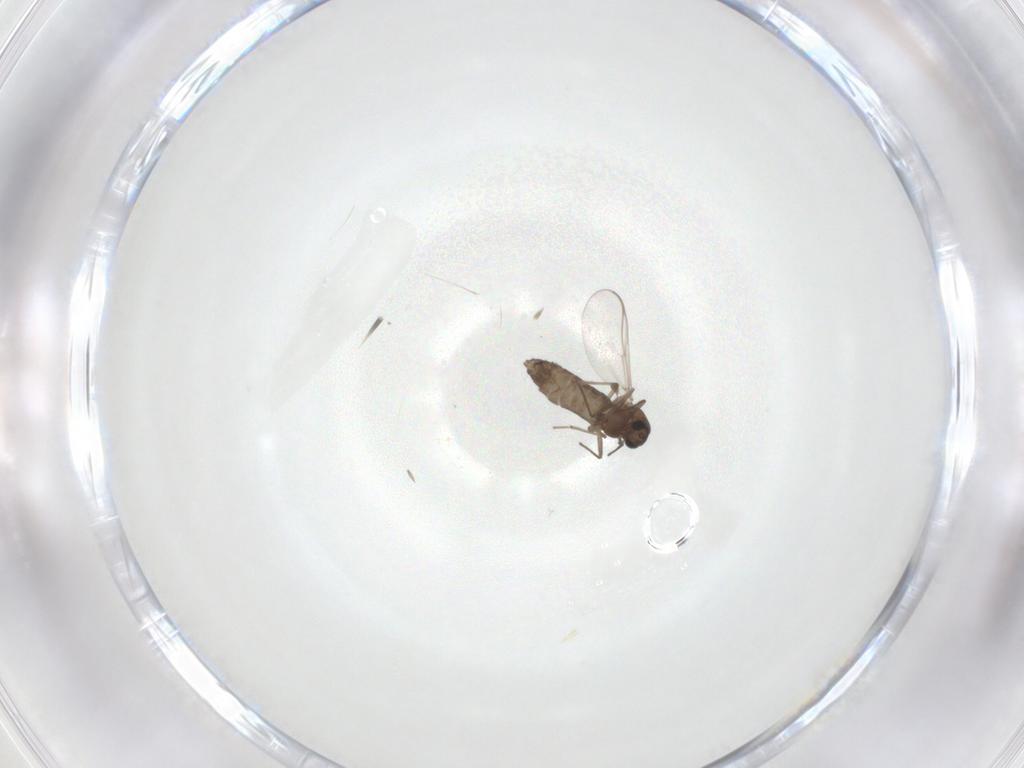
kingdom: Animalia
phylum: Arthropoda
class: Insecta
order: Diptera
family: Chironomidae
